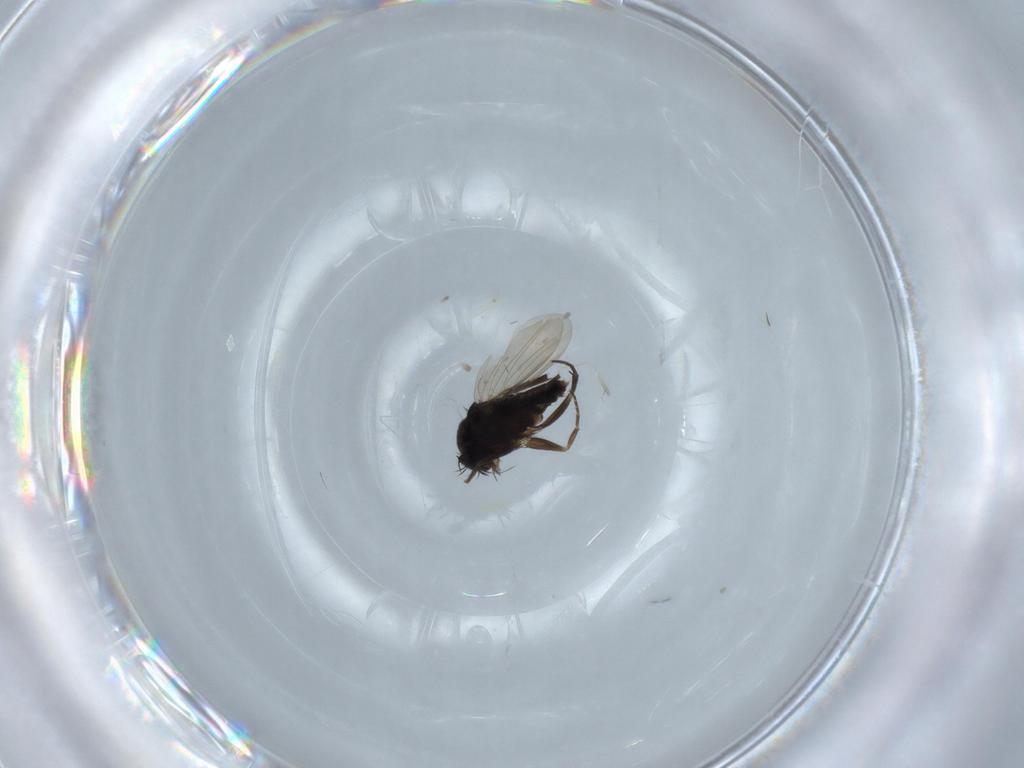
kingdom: Animalia
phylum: Arthropoda
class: Insecta
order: Diptera
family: Phoridae
